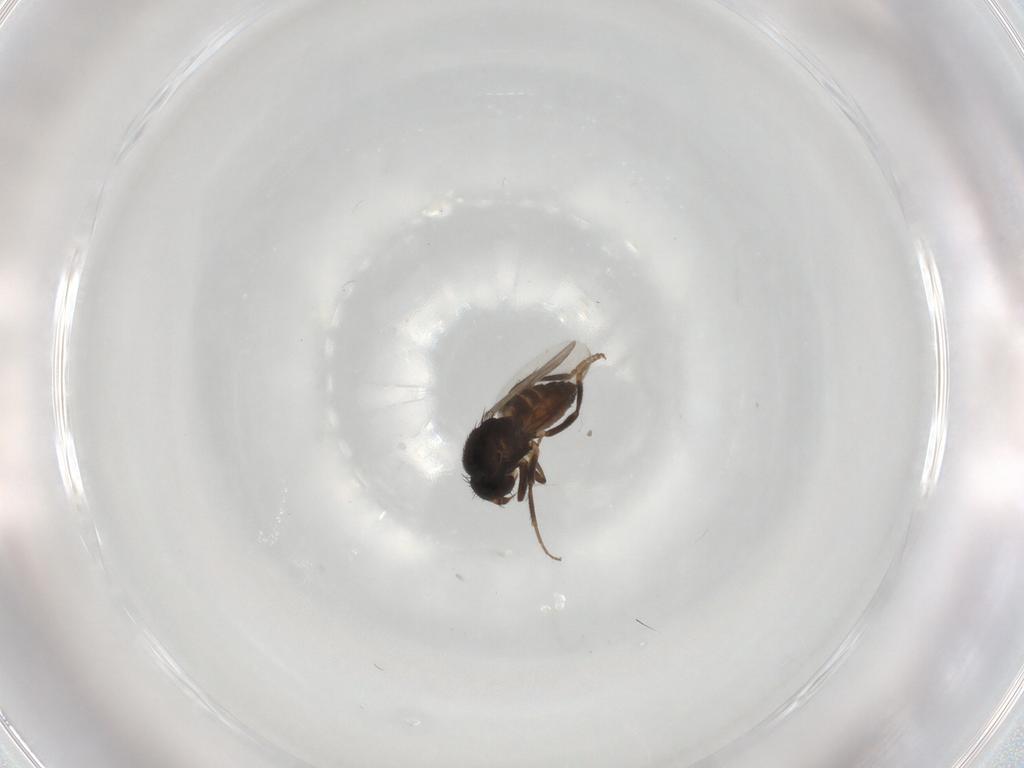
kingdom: Animalia
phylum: Arthropoda
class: Insecta
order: Diptera
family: Sphaeroceridae
